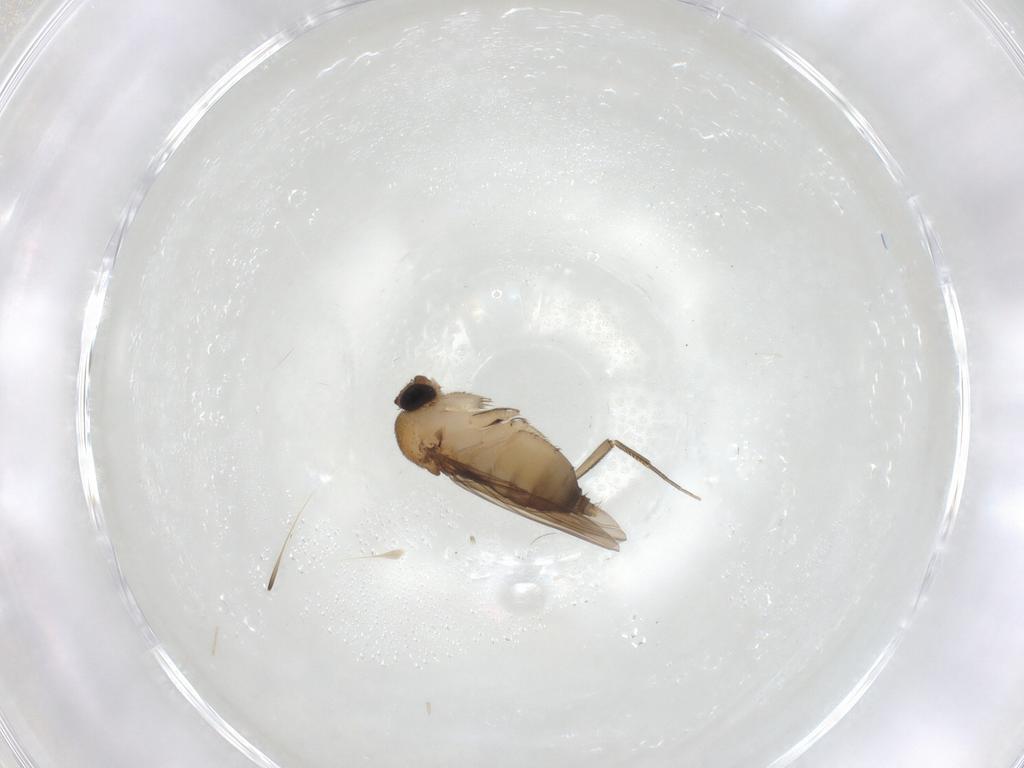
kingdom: Animalia
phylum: Arthropoda
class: Insecta
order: Diptera
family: Phoridae
